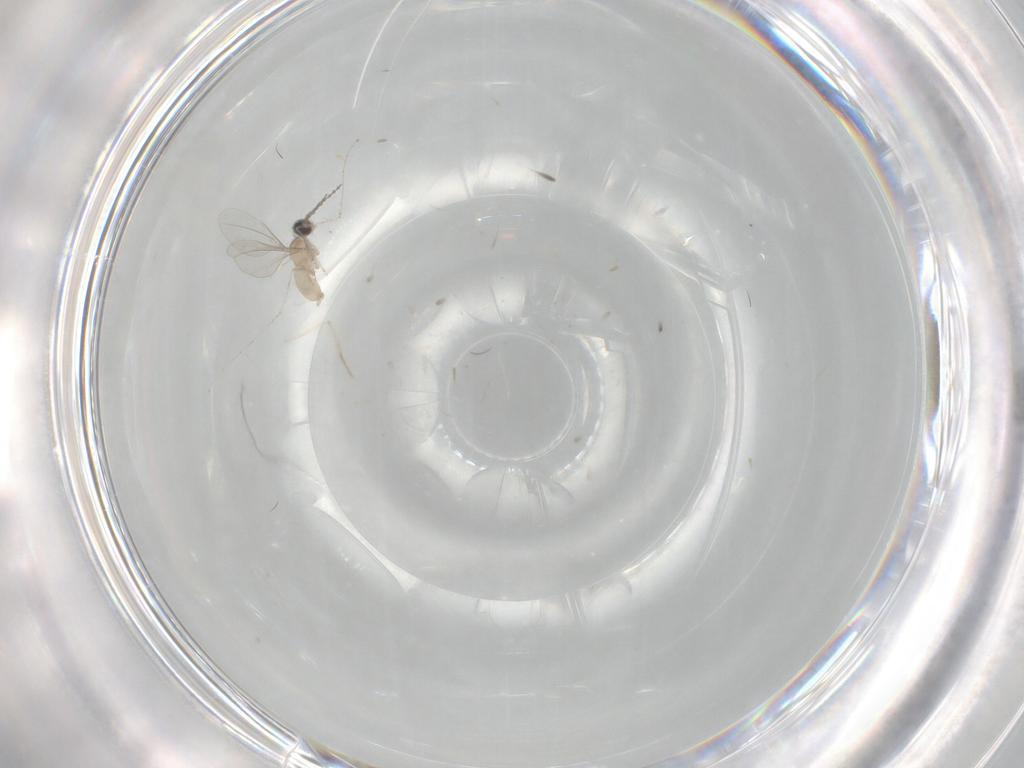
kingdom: Animalia
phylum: Arthropoda
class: Insecta
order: Diptera
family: Cecidomyiidae
